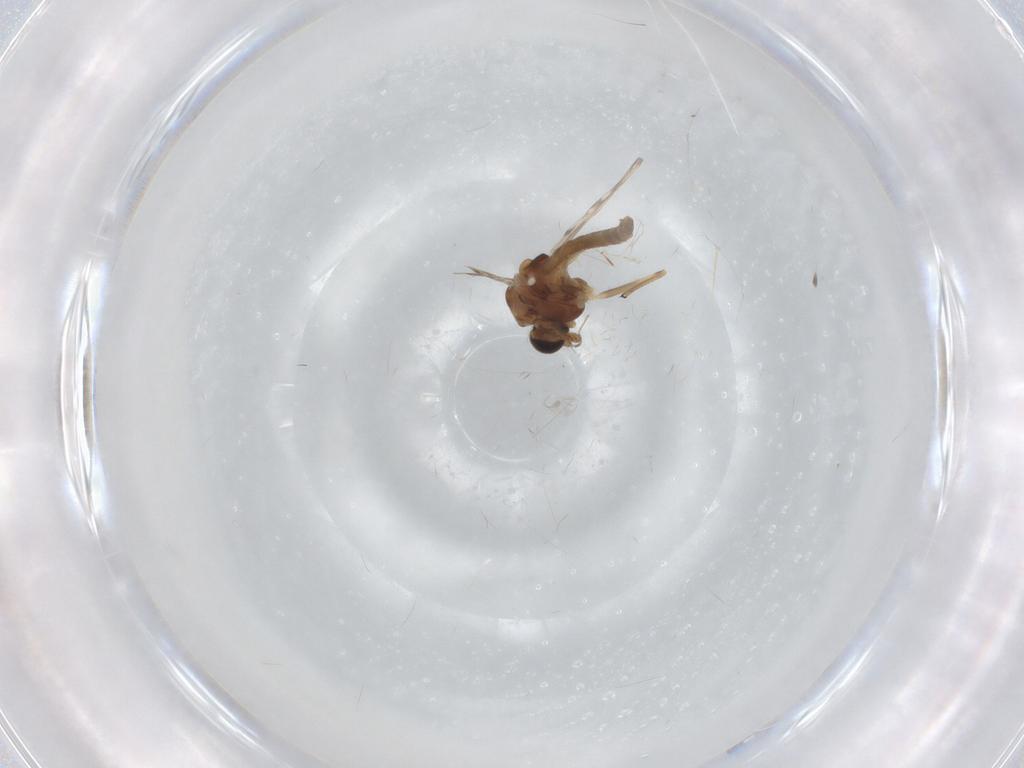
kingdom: Animalia
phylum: Arthropoda
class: Insecta
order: Diptera
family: Chironomidae
